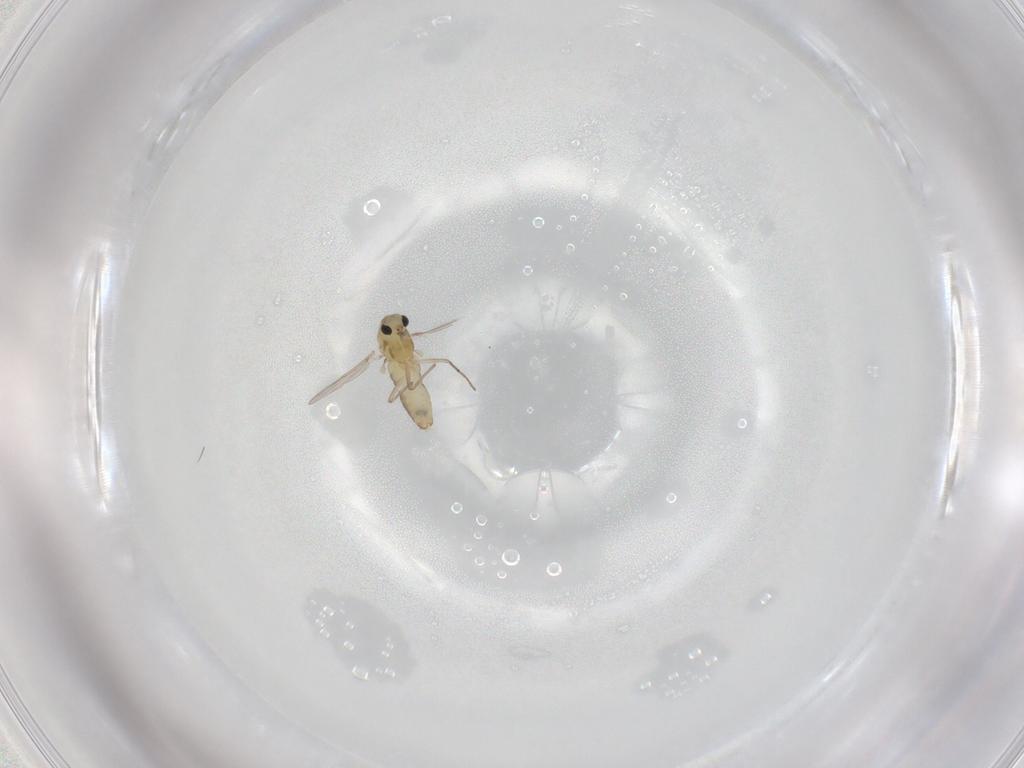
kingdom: Animalia
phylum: Arthropoda
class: Insecta
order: Diptera
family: Chironomidae
